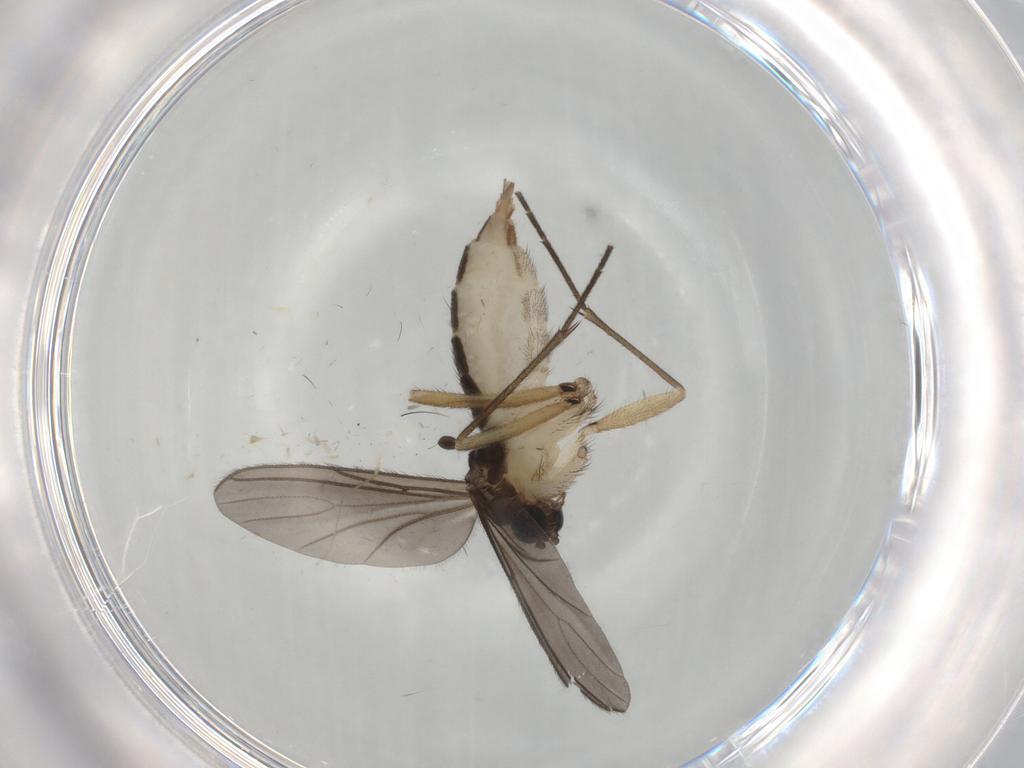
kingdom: Animalia
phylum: Arthropoda
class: Insecta
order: Diptera
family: Sciaridae
